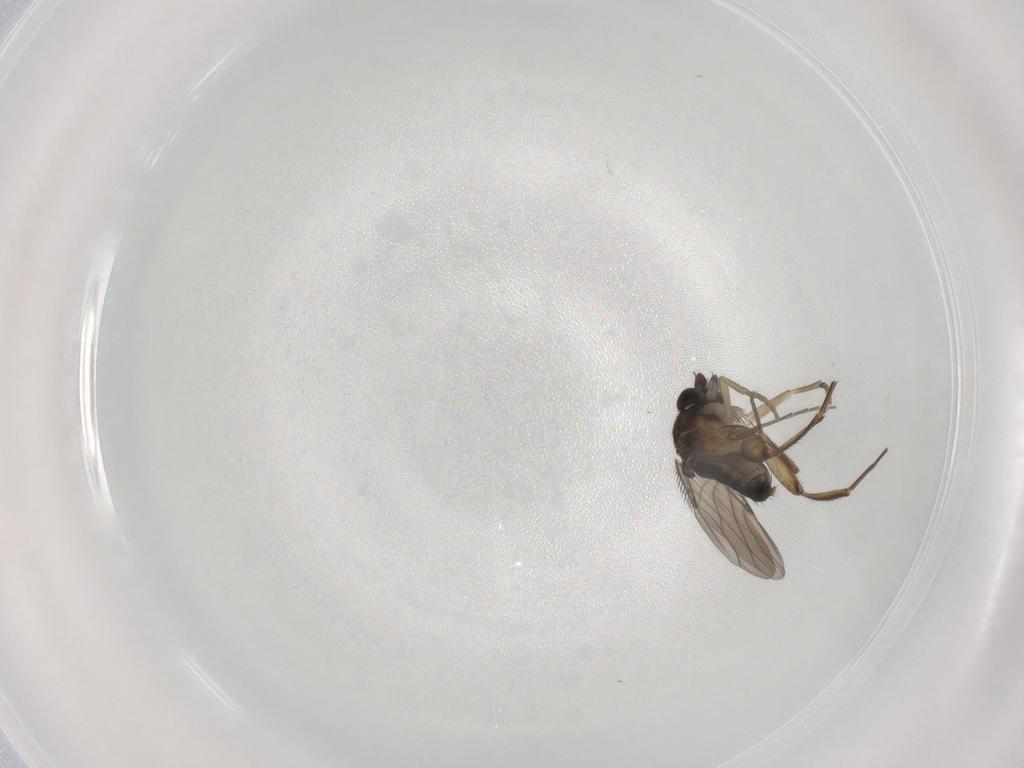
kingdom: Animalia
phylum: Arthropoda
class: Insecta
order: Diptera
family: Phoridae
